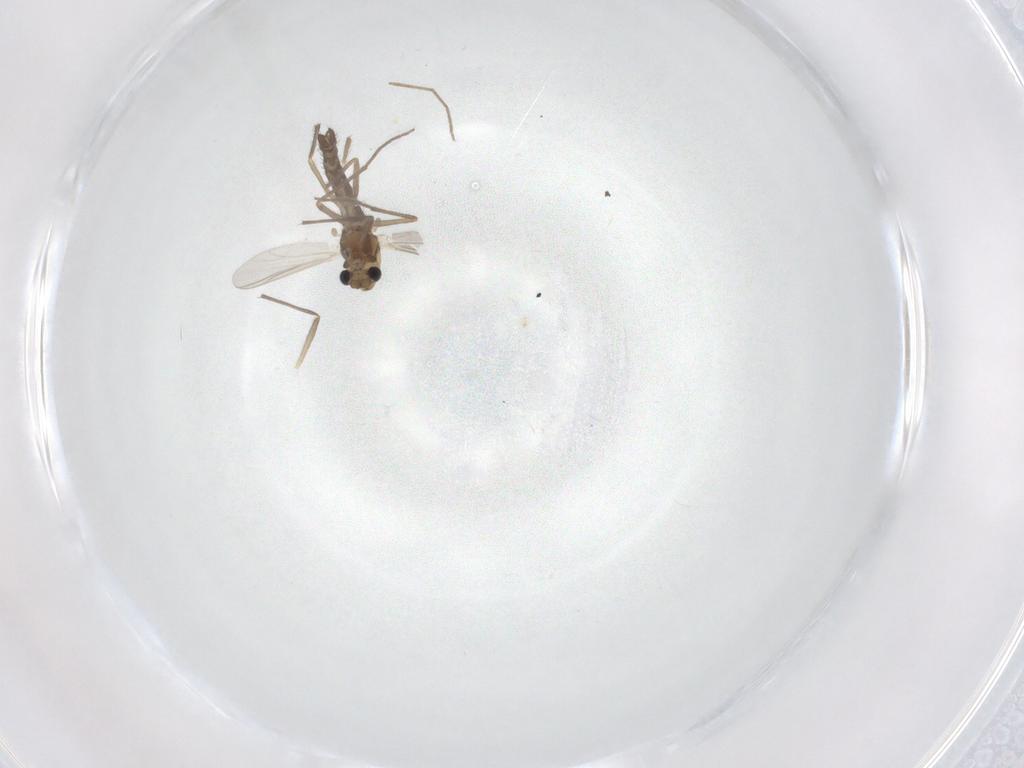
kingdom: Animalia
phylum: Arthropoda
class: Insecta
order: Diptera
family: Chironomidae
